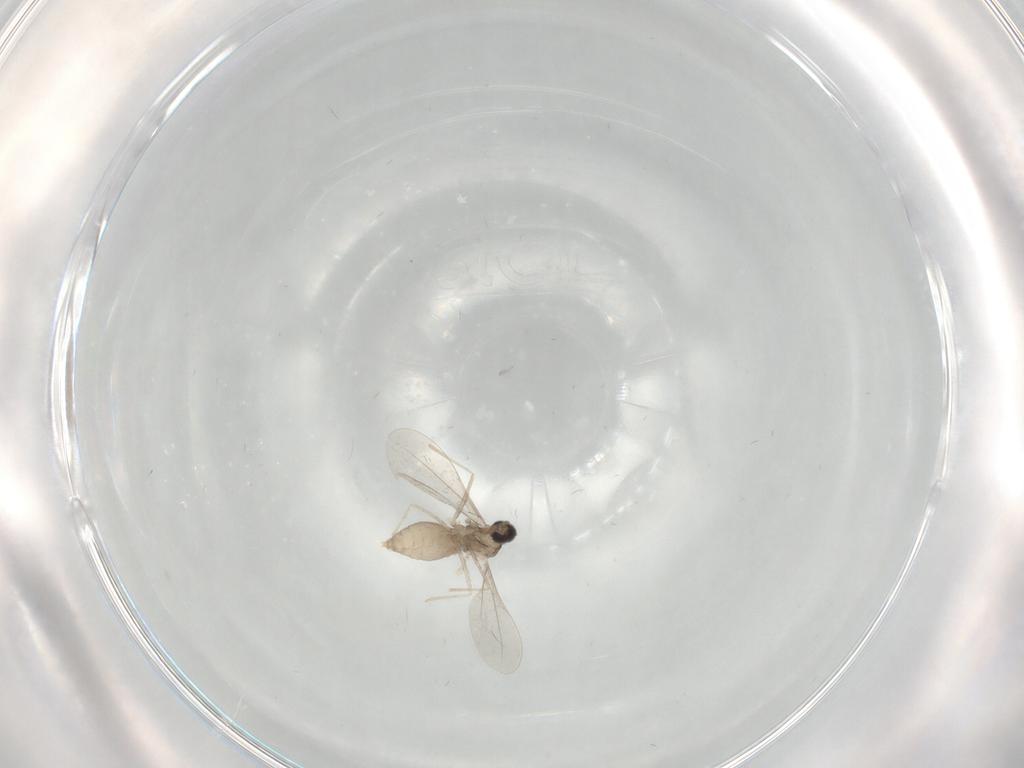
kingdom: Animalia
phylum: Arthropoda
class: Insecta
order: Diptera
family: Cecidomyiidae
